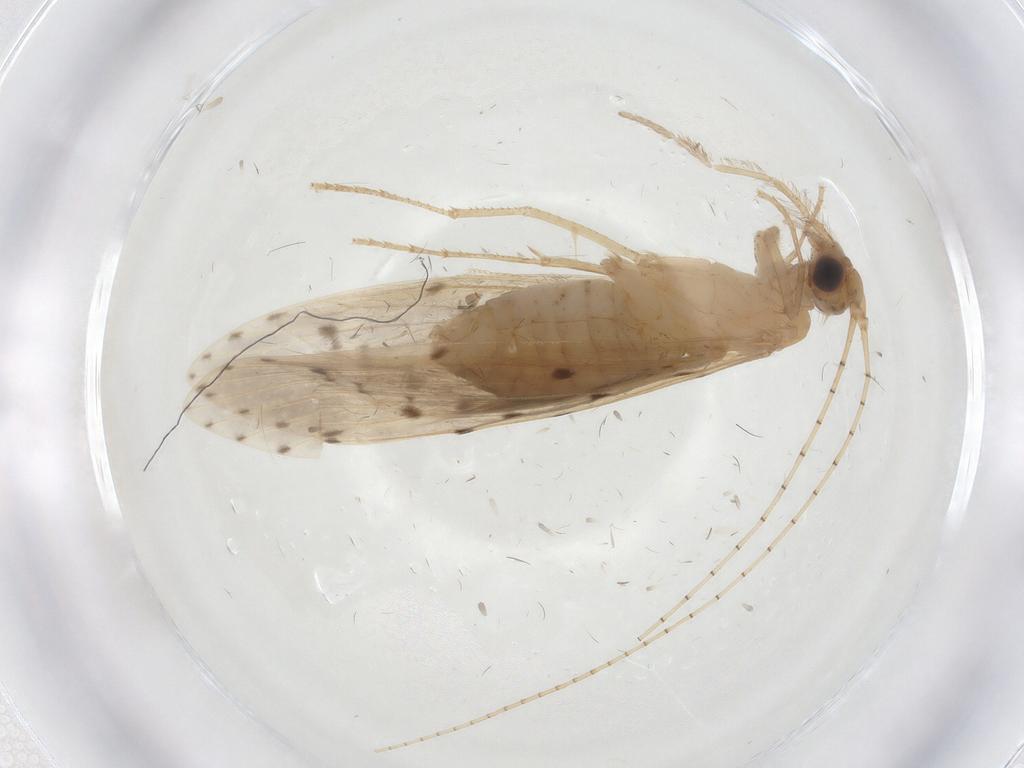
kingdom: Animalia
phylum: Arthropoda
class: Insecta
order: Trichoptera
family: Leptoceridae
